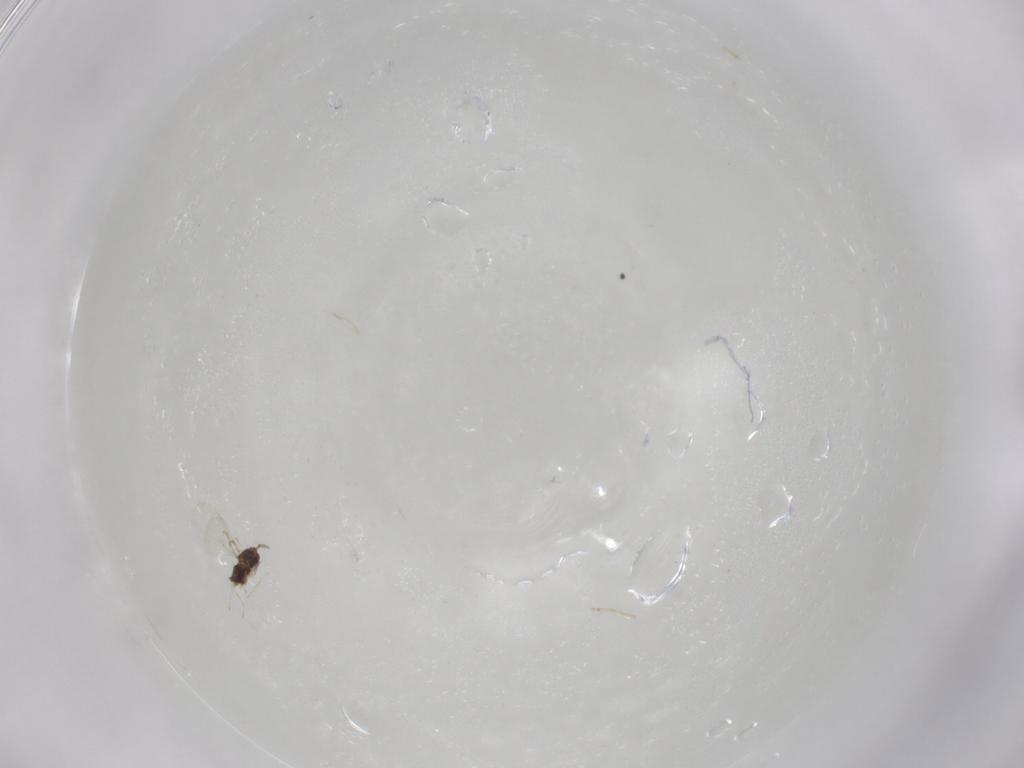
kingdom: Animalia
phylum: Arthropoda
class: Insecta
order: Hymenoptera
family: Trichogrammatidae
